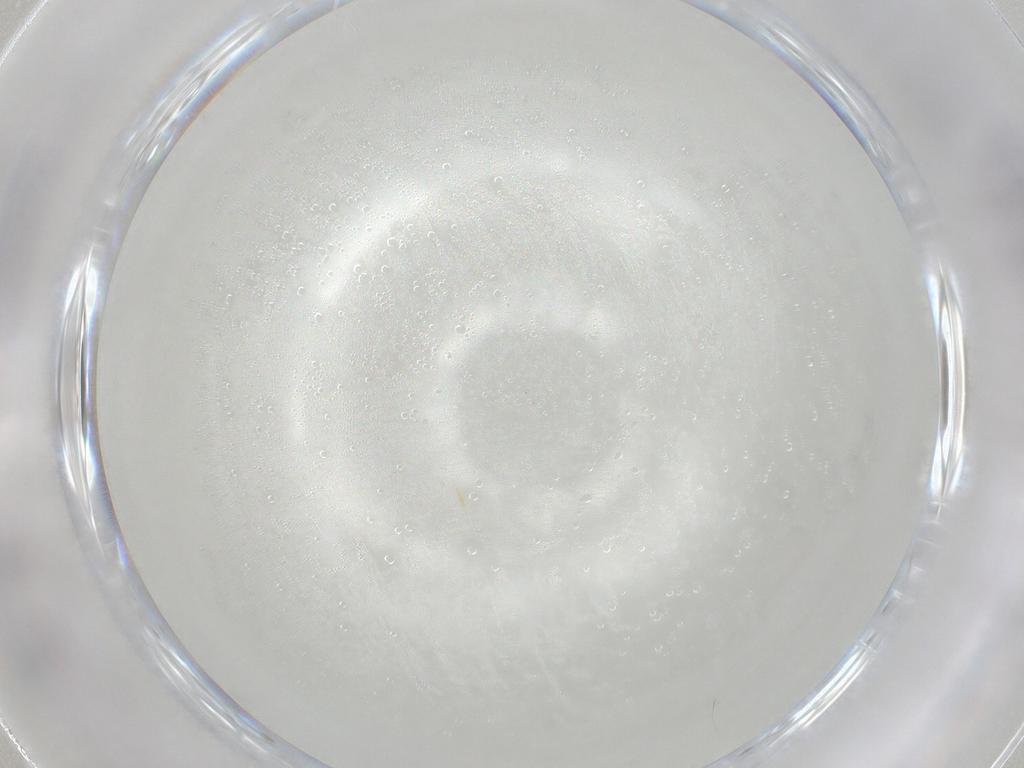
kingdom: Animalia
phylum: Arthropoda
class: Insecta
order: Hemiptera
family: Aleyrodidae
